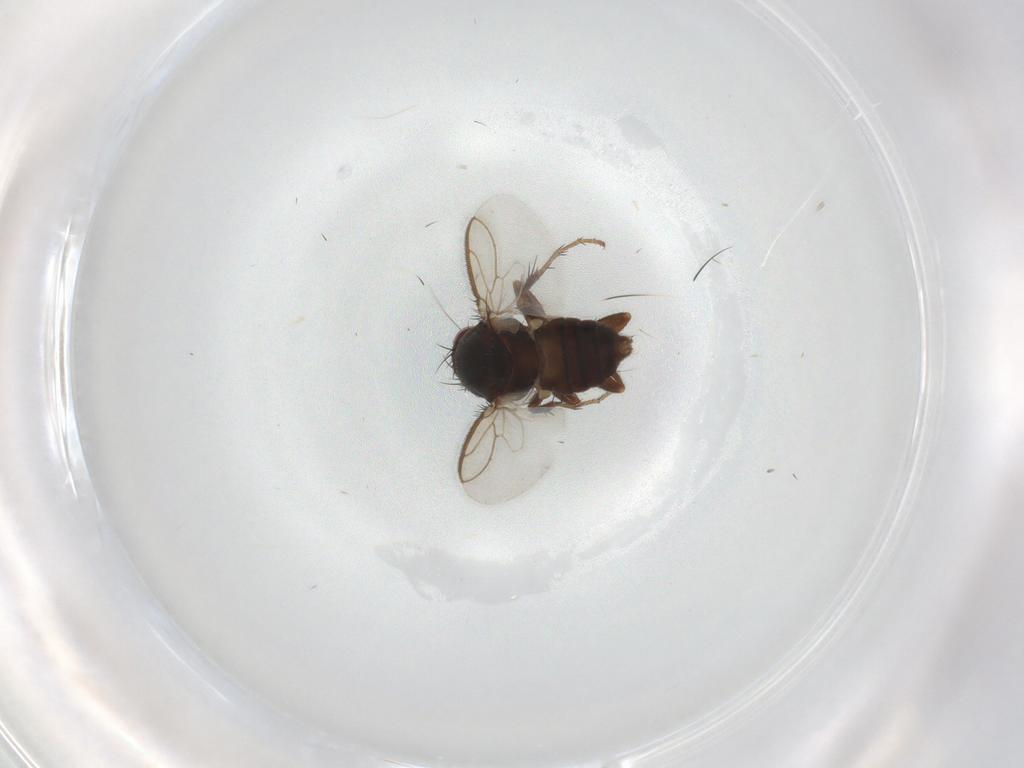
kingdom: Animalia
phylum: Arthropoda
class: Insecta
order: Diptera
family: Sphaeroceridae
